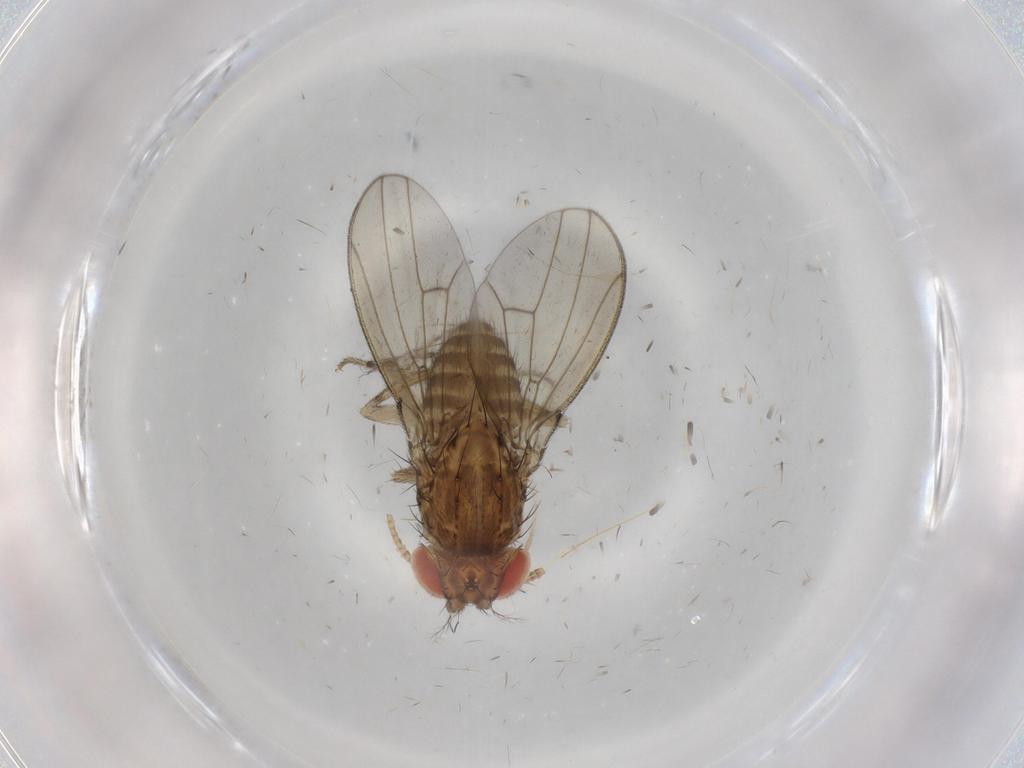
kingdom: Animalia
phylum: Arthropoda
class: Insecta
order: Diptera
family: Drosophilidae
